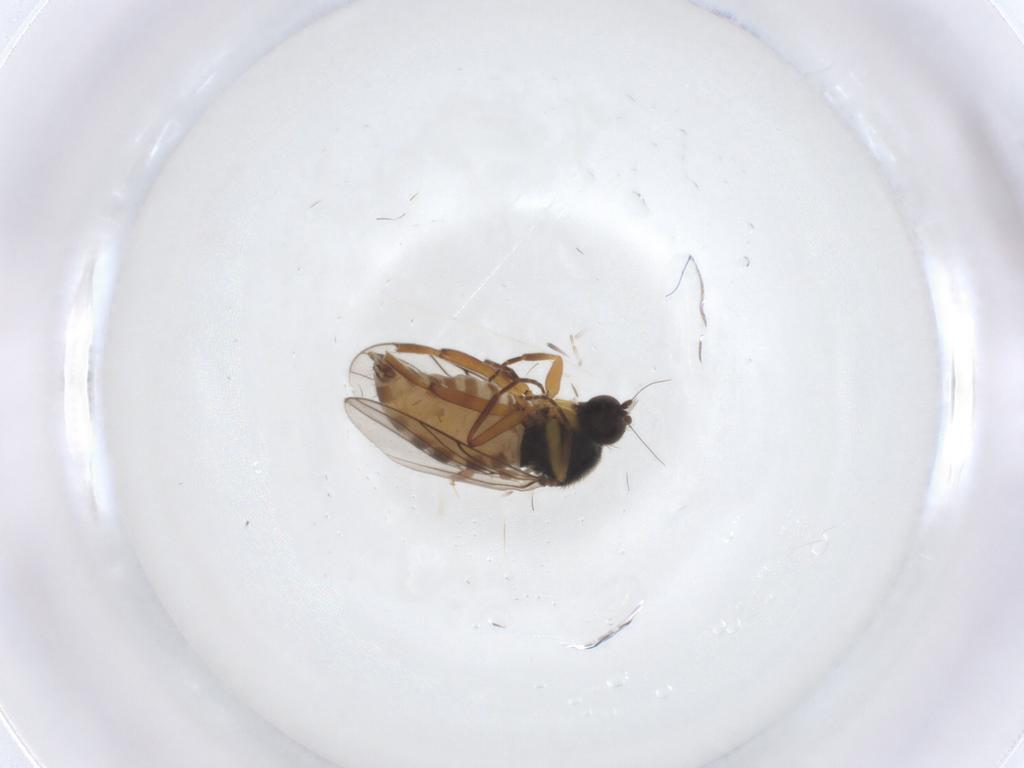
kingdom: Animalia
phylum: Arthropoda
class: Insecta
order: Diptera
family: Hybotidae
